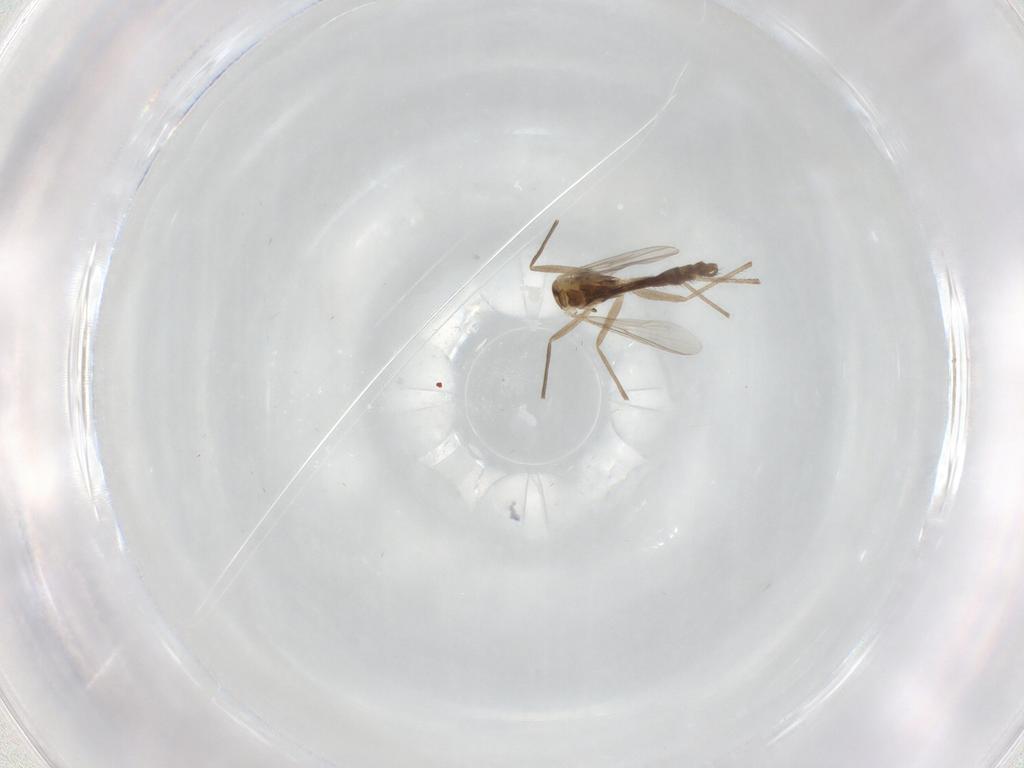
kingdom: Animalia
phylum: Arthropoda
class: Insecta
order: Diptera
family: Chironomidae
